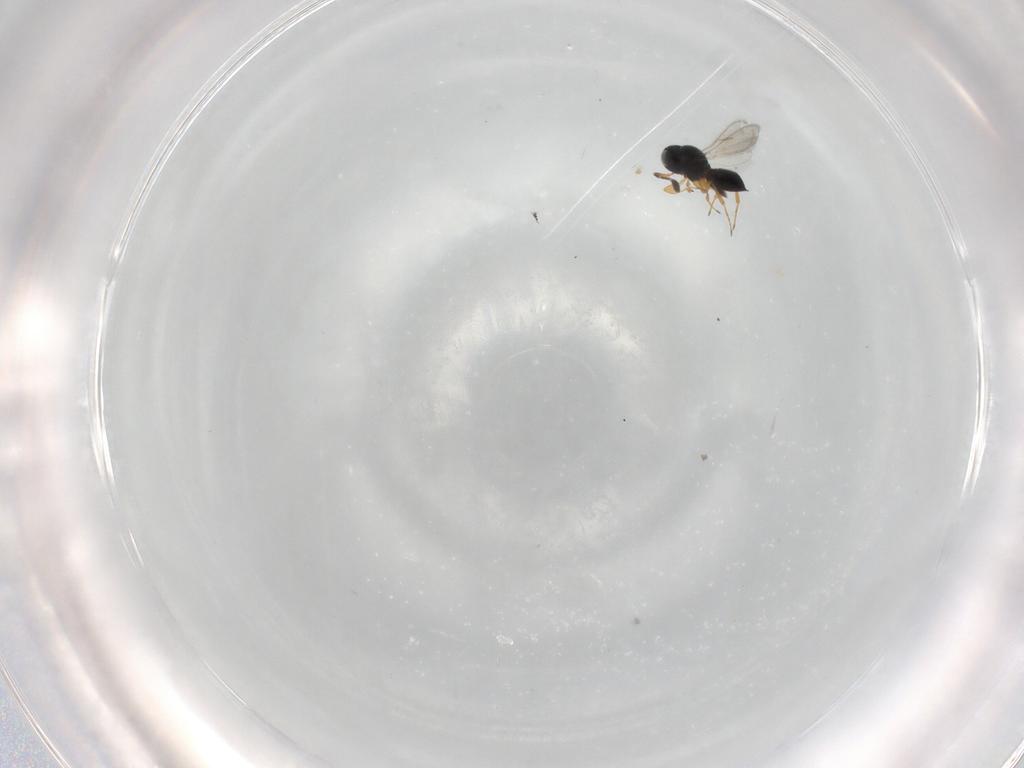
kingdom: Animalia
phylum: Arthropoda
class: Insecta
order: Hymenoptera
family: Scelionidae
